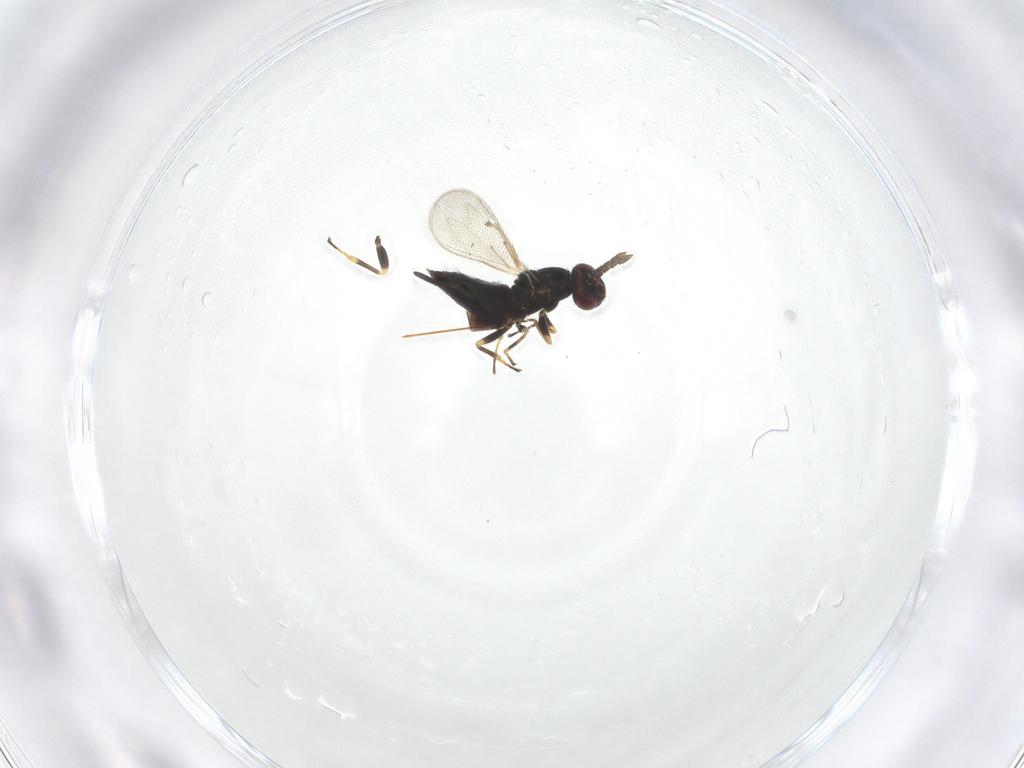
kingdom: Animalia
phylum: Arthropoda
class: Insecta
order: Hymenoptera
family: Eulophidae
